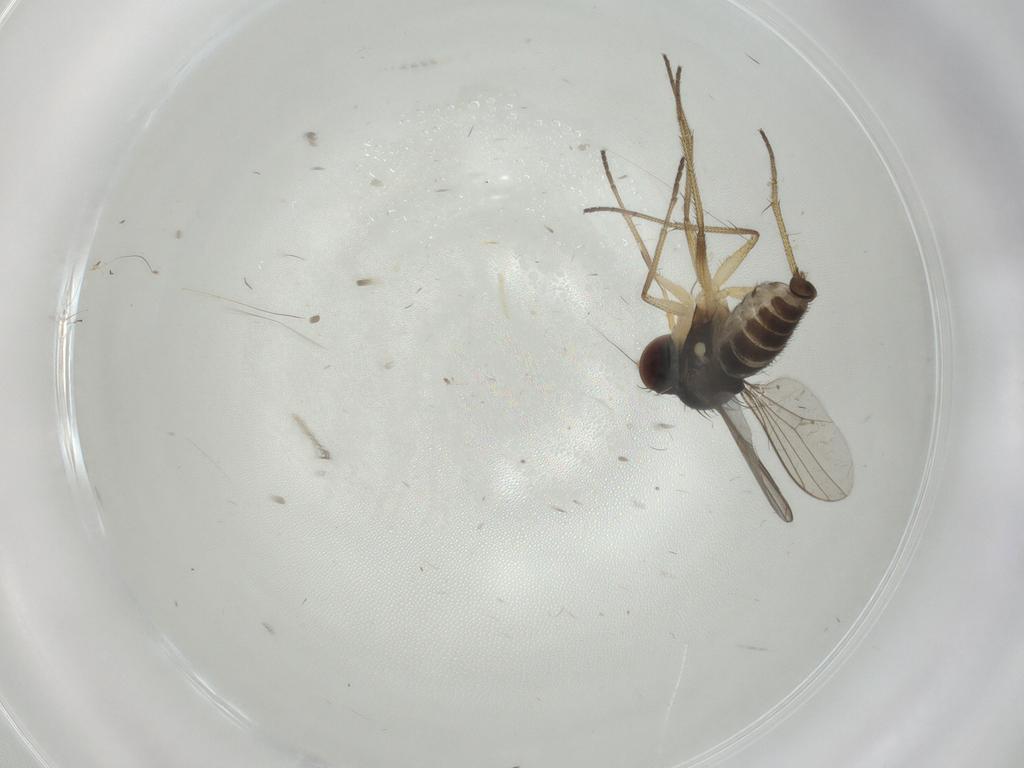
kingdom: Animalia
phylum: Arthropoda
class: Insecta
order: Diptera
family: Dolichopodidae
